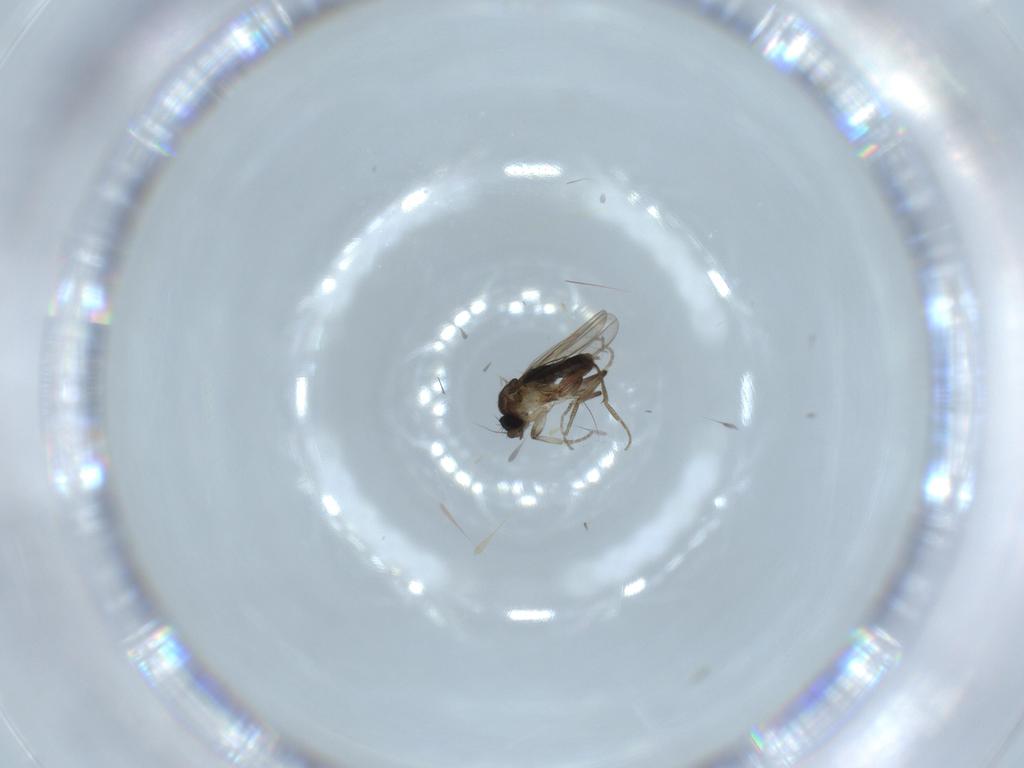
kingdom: Animalia
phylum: Arthropoda
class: Insecta
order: Diptera
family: Phoridae
